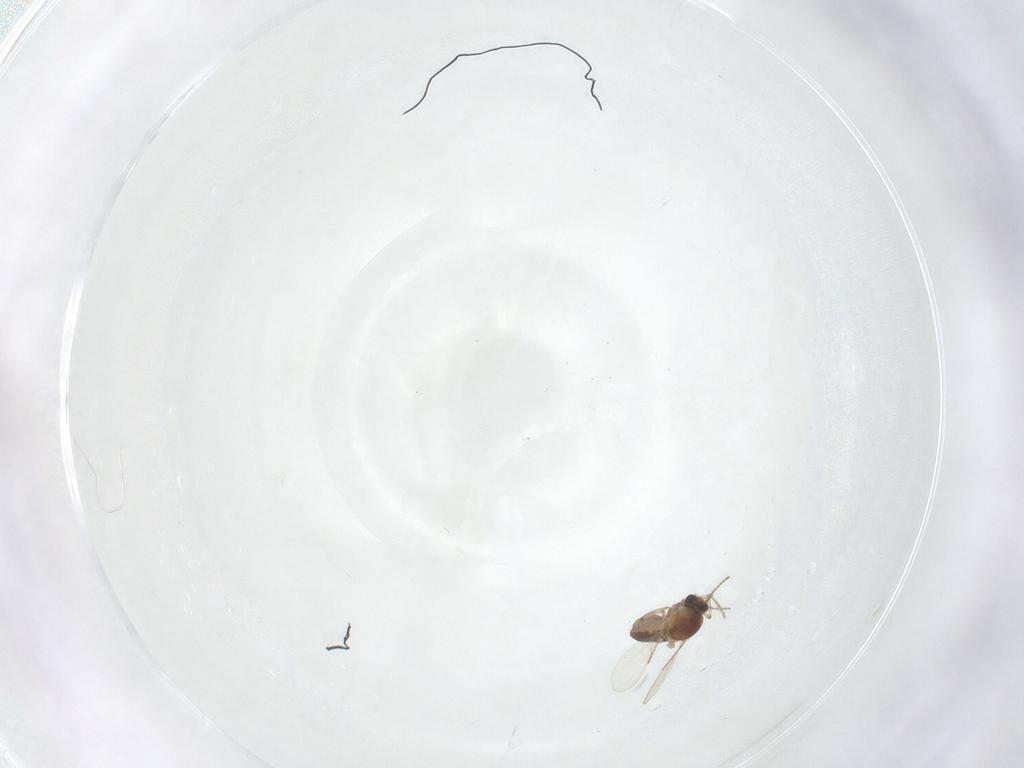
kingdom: Animalia
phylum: Arthropoda
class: Insecta
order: Diptera
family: Ceratopogonidae
